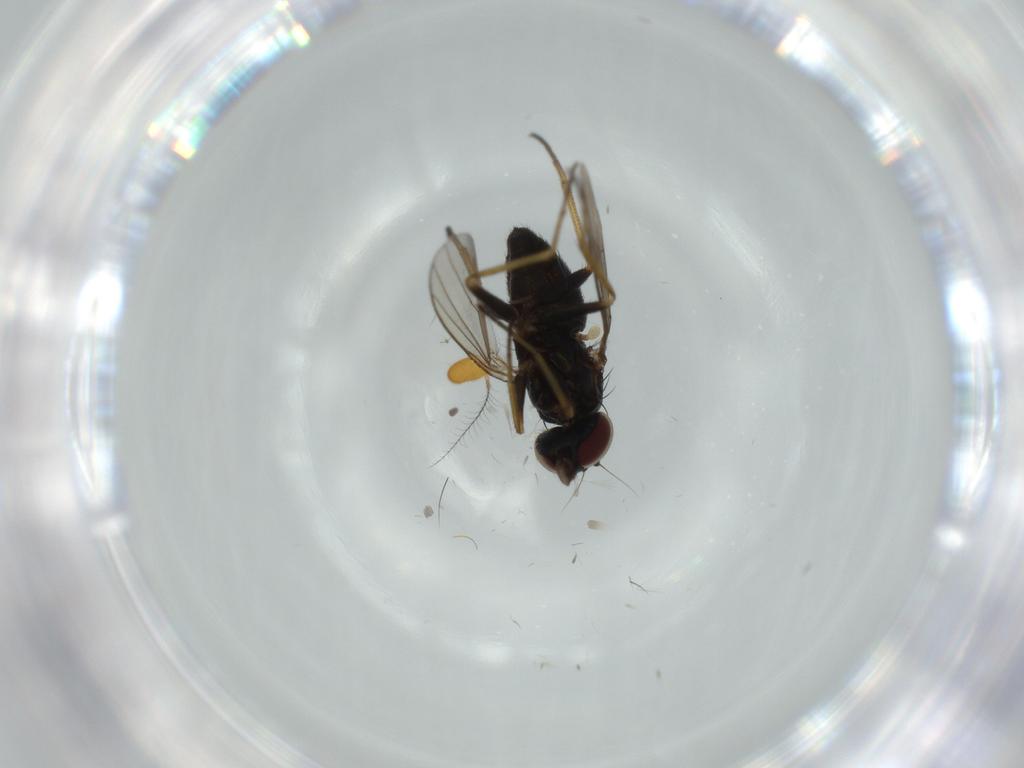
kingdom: Animalia
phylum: Arthropoda
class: Insecta
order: Diptera
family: Dolichopodidae
